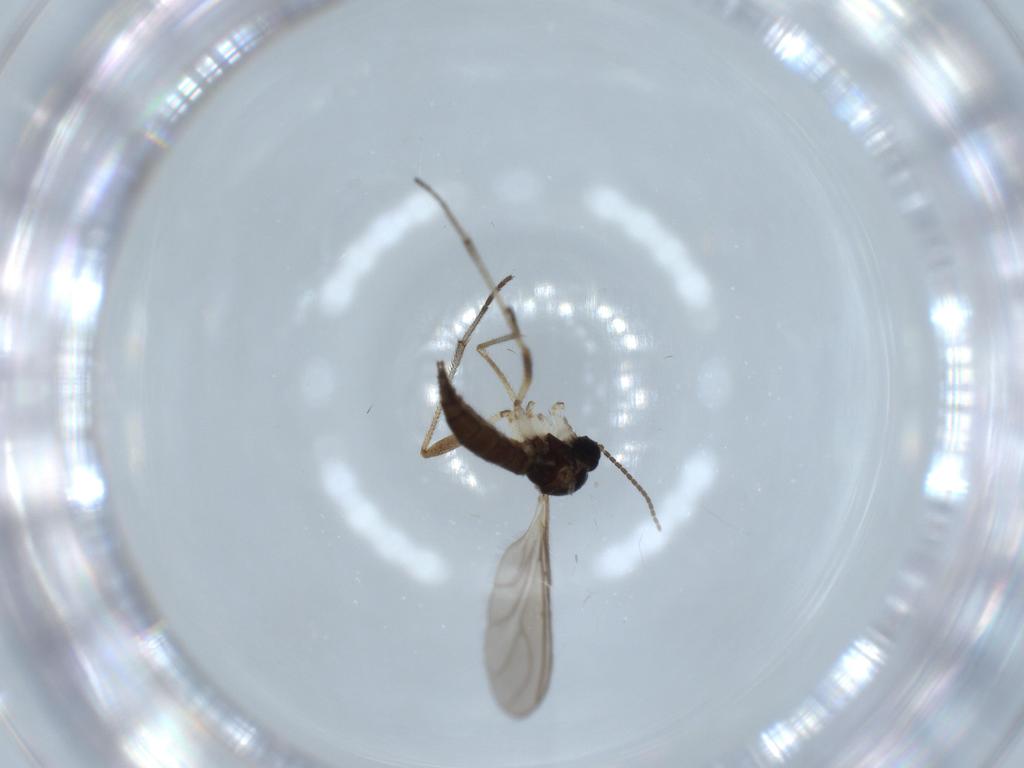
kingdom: Animalia
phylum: Arthropoda
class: Insecta
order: Diptera
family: Sciaridae
